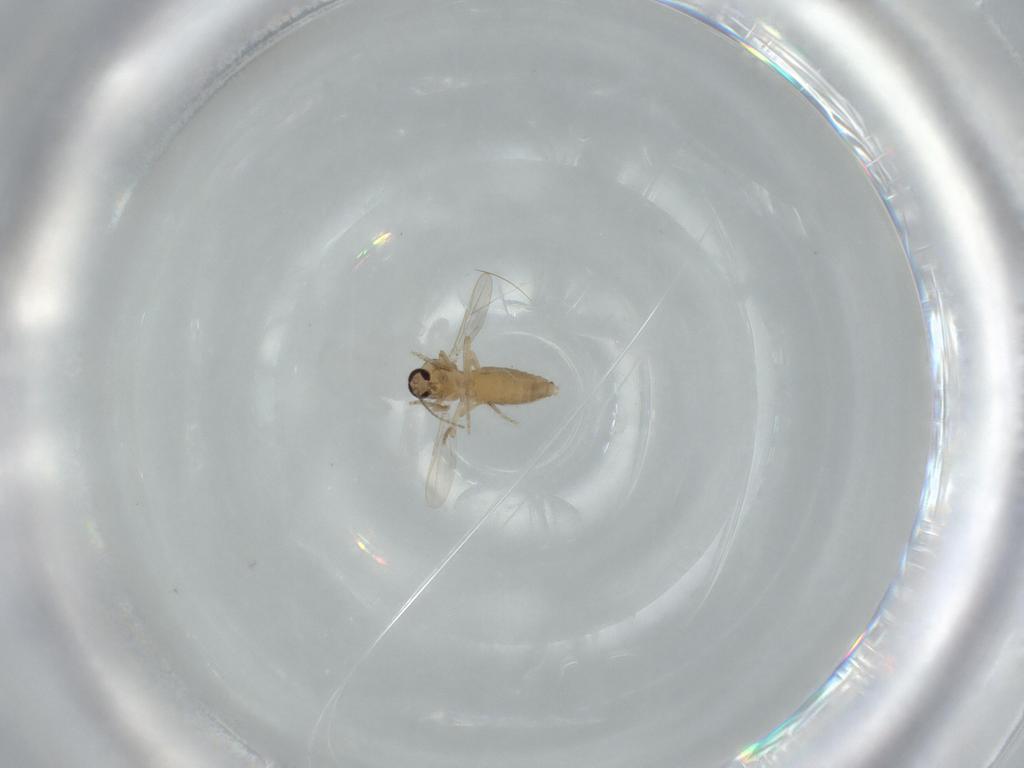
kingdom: Animalia
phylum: Arthropoda
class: Insecta
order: Diptera
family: Ceratopogonidae
